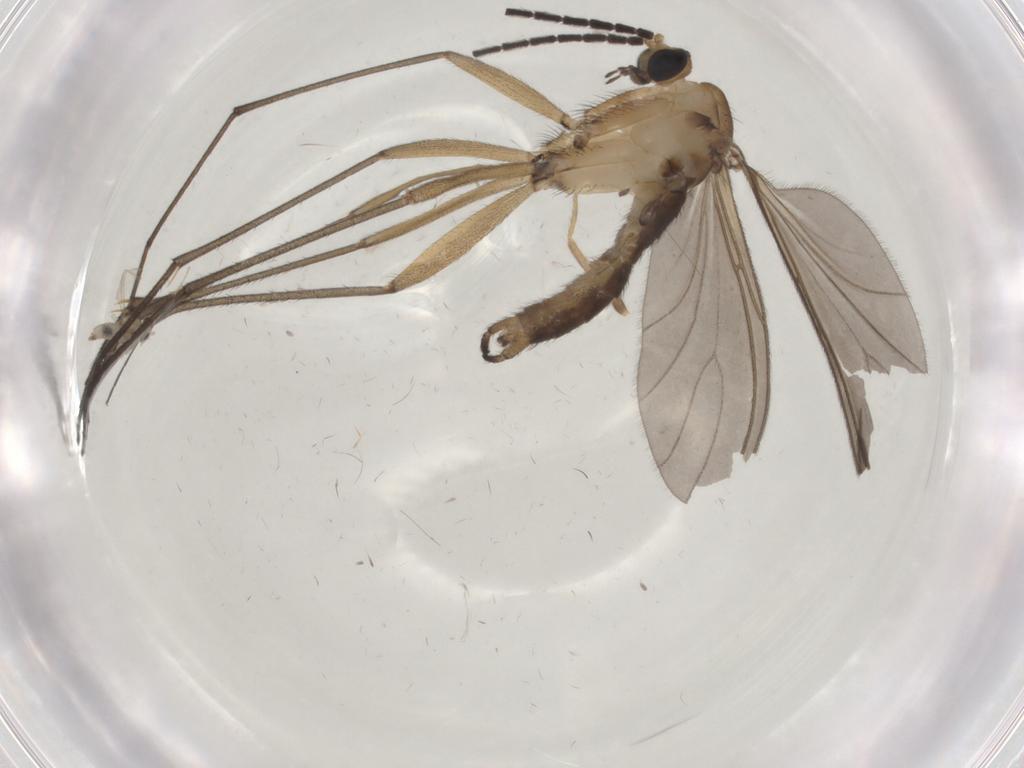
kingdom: Animalia
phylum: Arthropoda
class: Insecta
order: Diptera
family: Sciaridae
